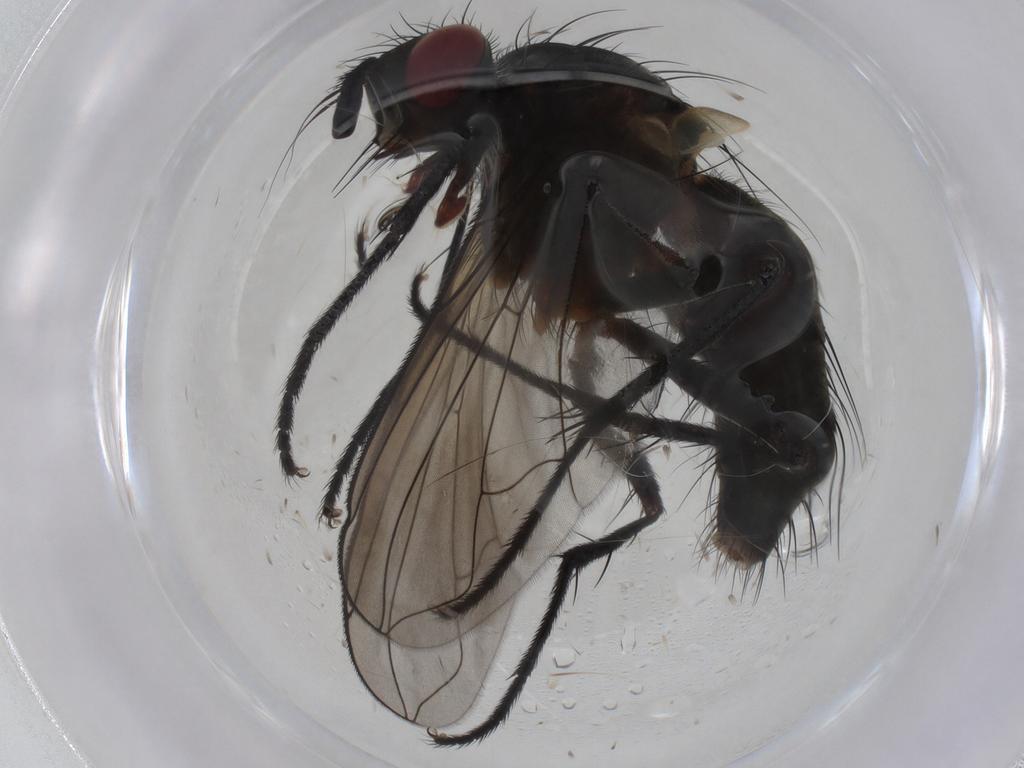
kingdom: Animalia
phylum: Arthropoda
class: Insecta
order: Diptera
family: Tachinidae
